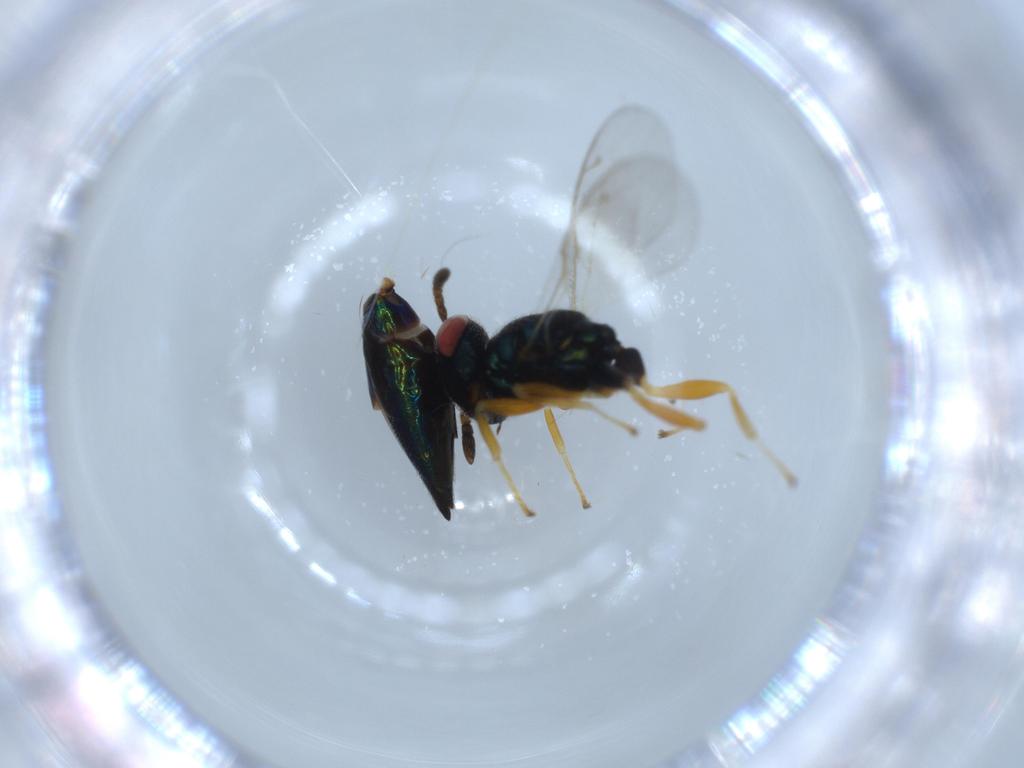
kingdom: Animalia
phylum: Arthropoda
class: Insecta
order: Hymenoptera
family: Pteromalidae
